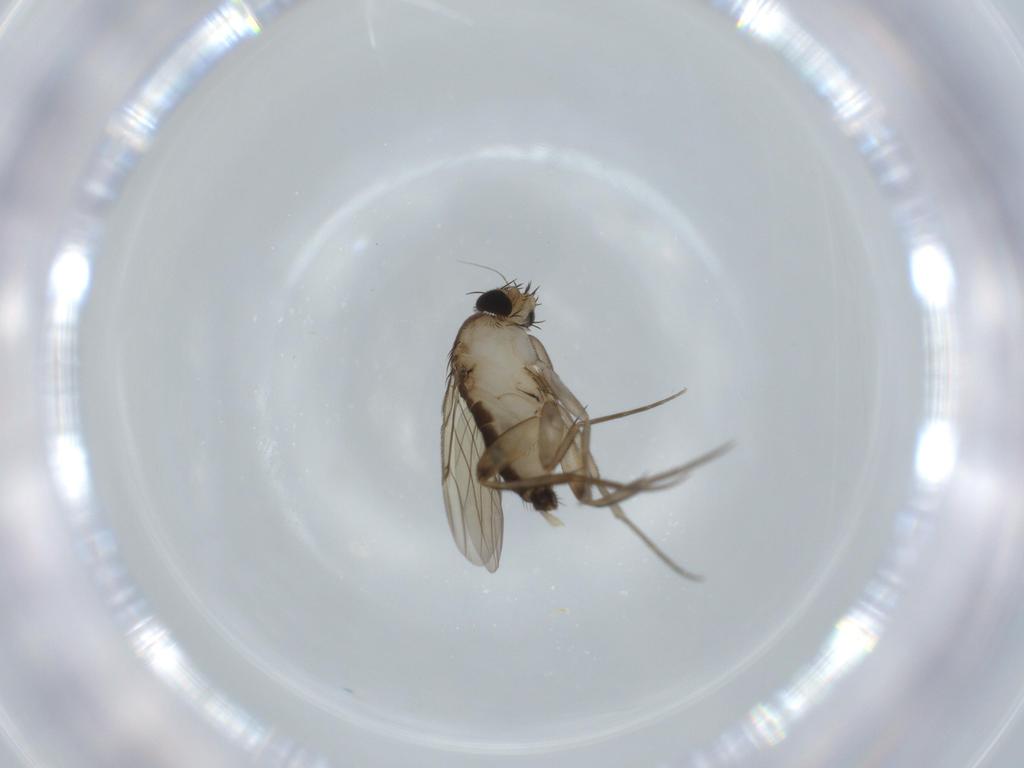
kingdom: Animalia
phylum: Arthropoda
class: Insecta
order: Diptera
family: Phoridae
